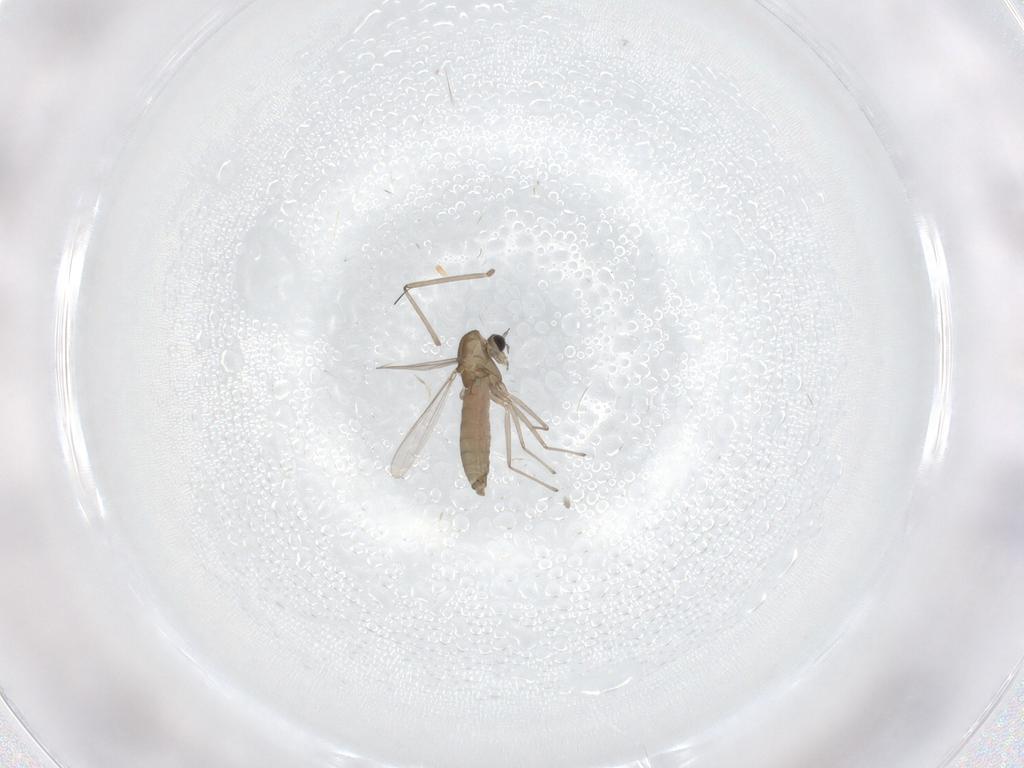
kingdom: Animalia
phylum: Arthropoda
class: Insecta
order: Diptera
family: Chironomidae
